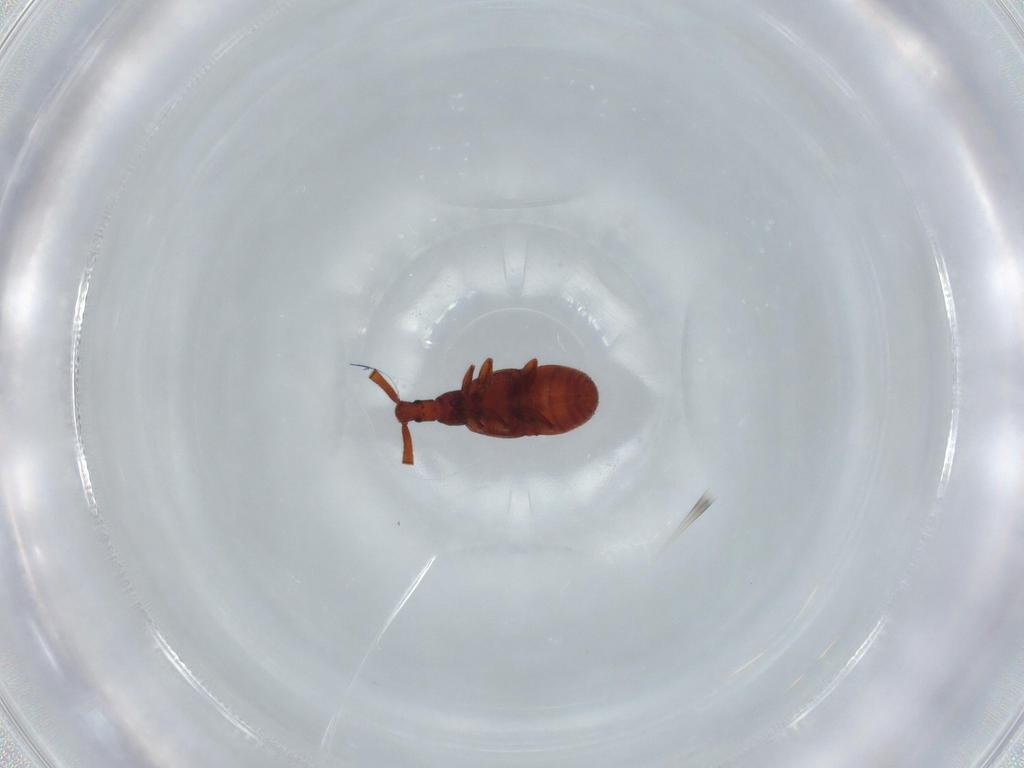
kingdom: Animalia
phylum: Arthropoda
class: Insecta
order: Coleoptera
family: Staphylinidae
